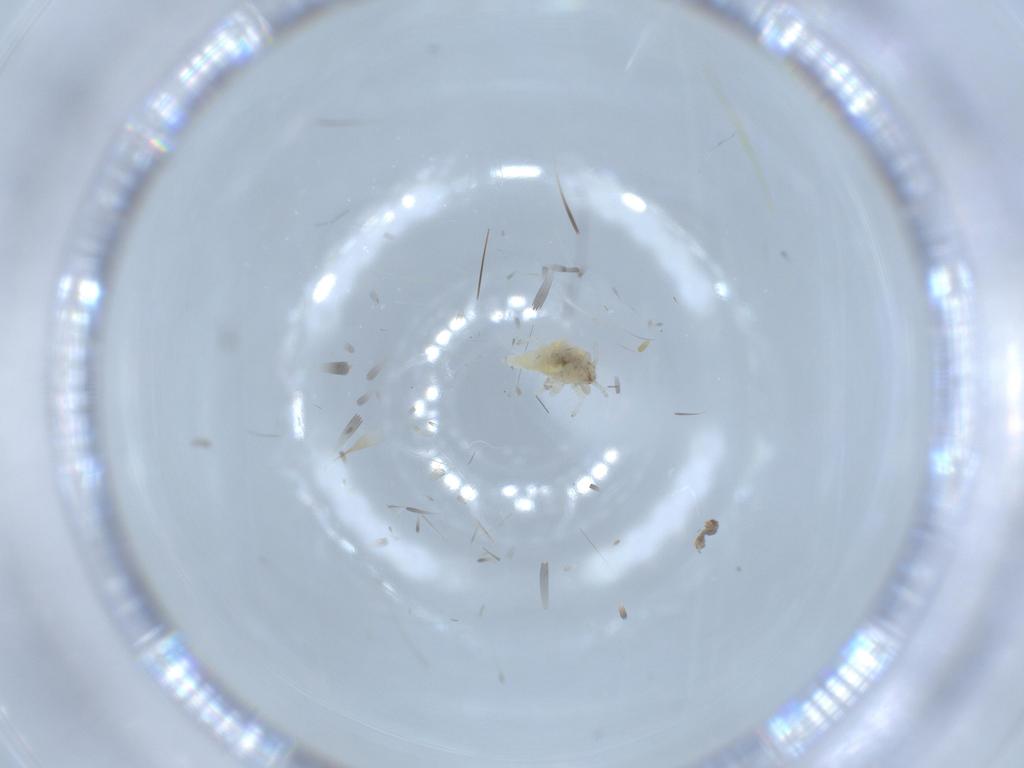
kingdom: Animalia
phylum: Arthropoda
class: Insecta
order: Neuroptera
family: Coniopterygidae
